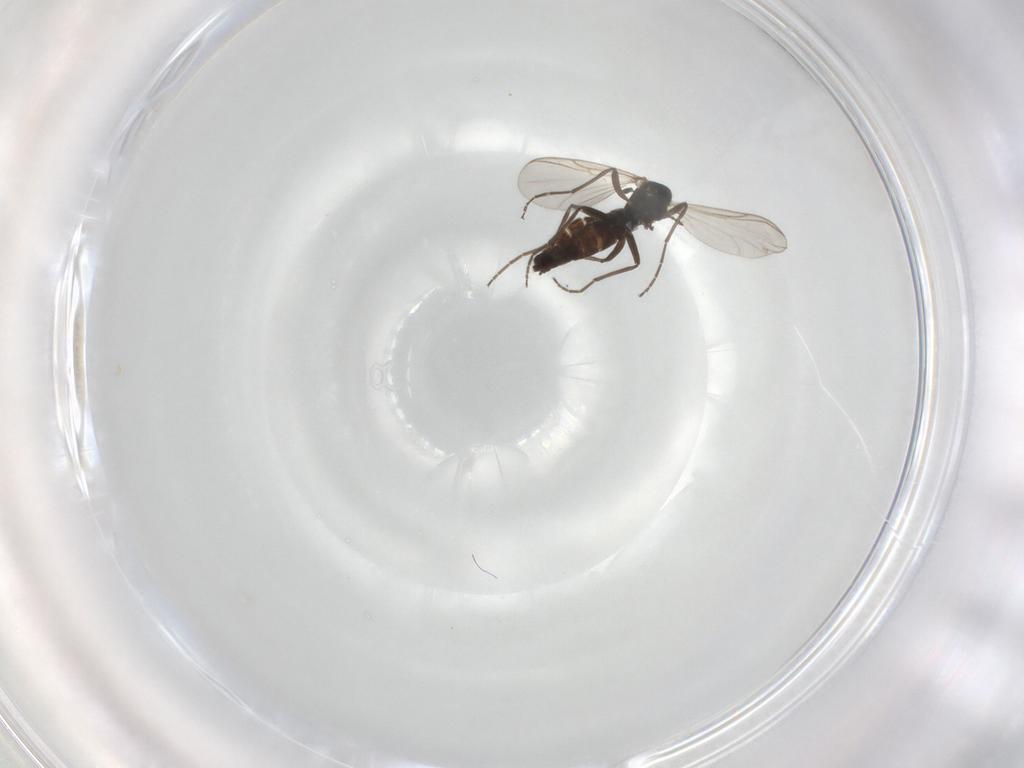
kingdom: Animalia
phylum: Arthropoda
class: Insecta
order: Diptera
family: Chironomidae
